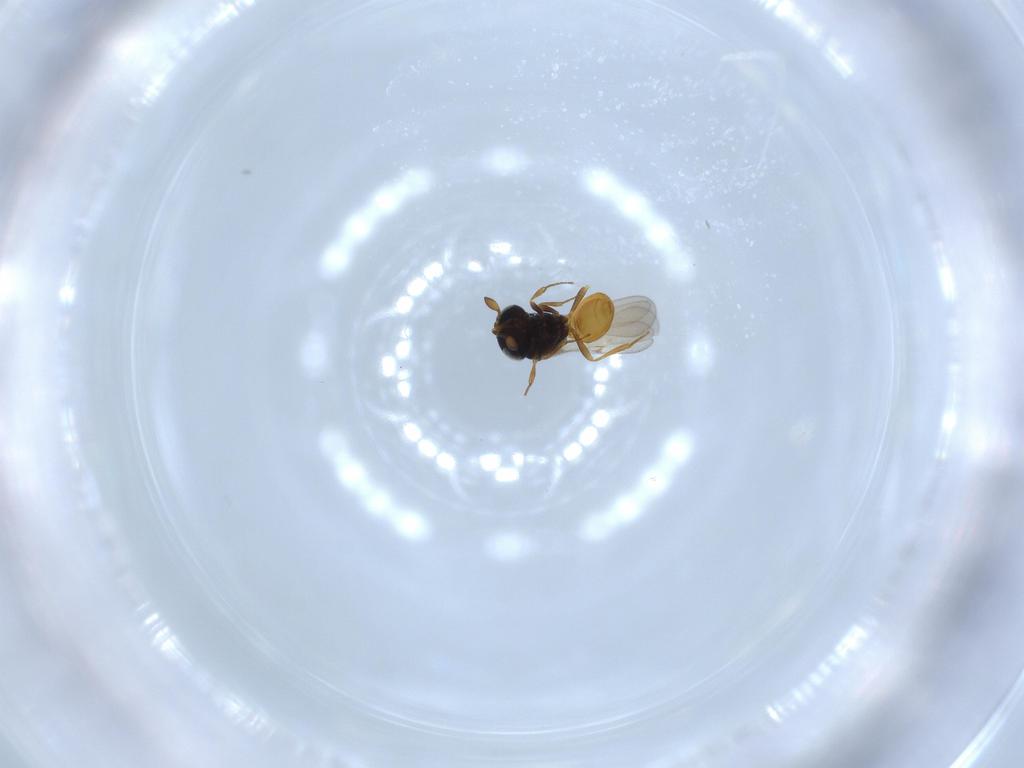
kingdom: Animalia
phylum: Arthropoda
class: Insecta
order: Hymenoptera
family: Scelionidae
